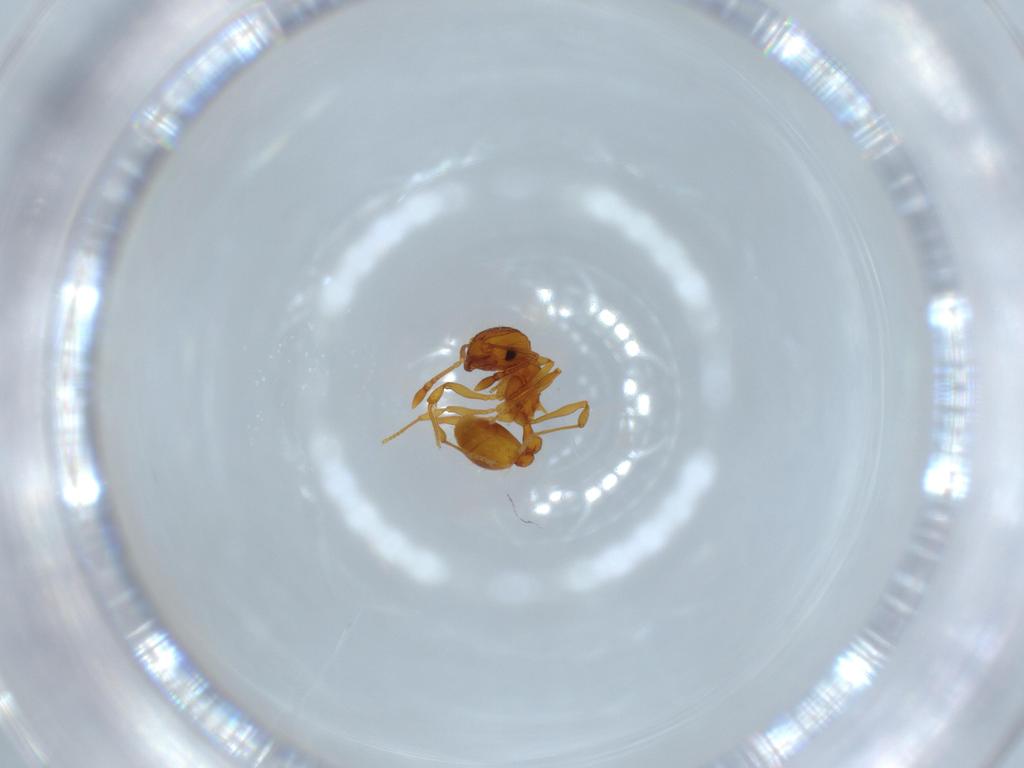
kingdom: Animalia
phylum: Arthropoda
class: Insecta
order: Hymenoptera
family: Formicidae
